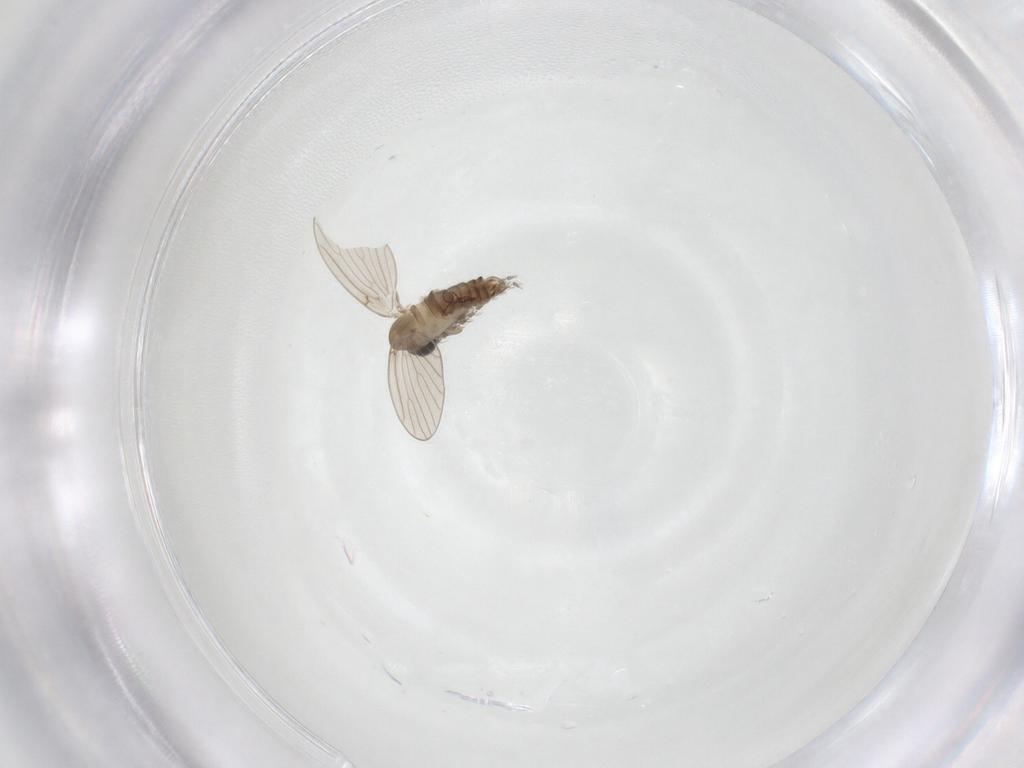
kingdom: Animalia
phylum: Arthropoda
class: Insecta
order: Diptera
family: Psychodidae
